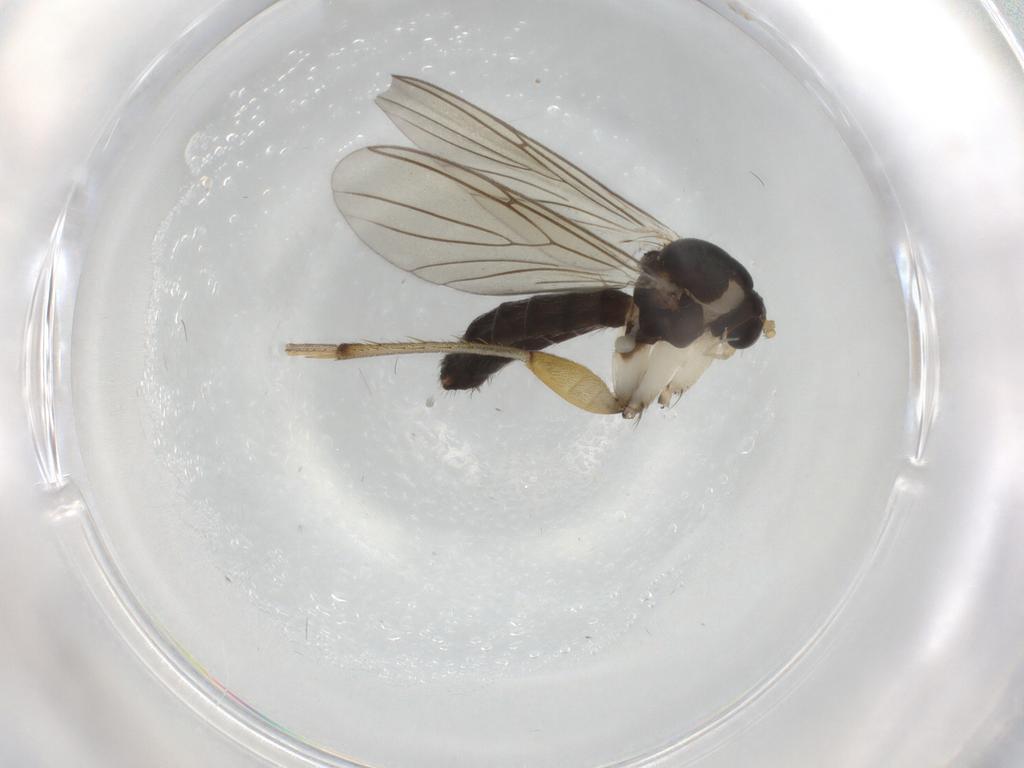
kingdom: Animalia
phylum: Arthropoda
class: Insecta
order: Diptera
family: Mycetophilidae
